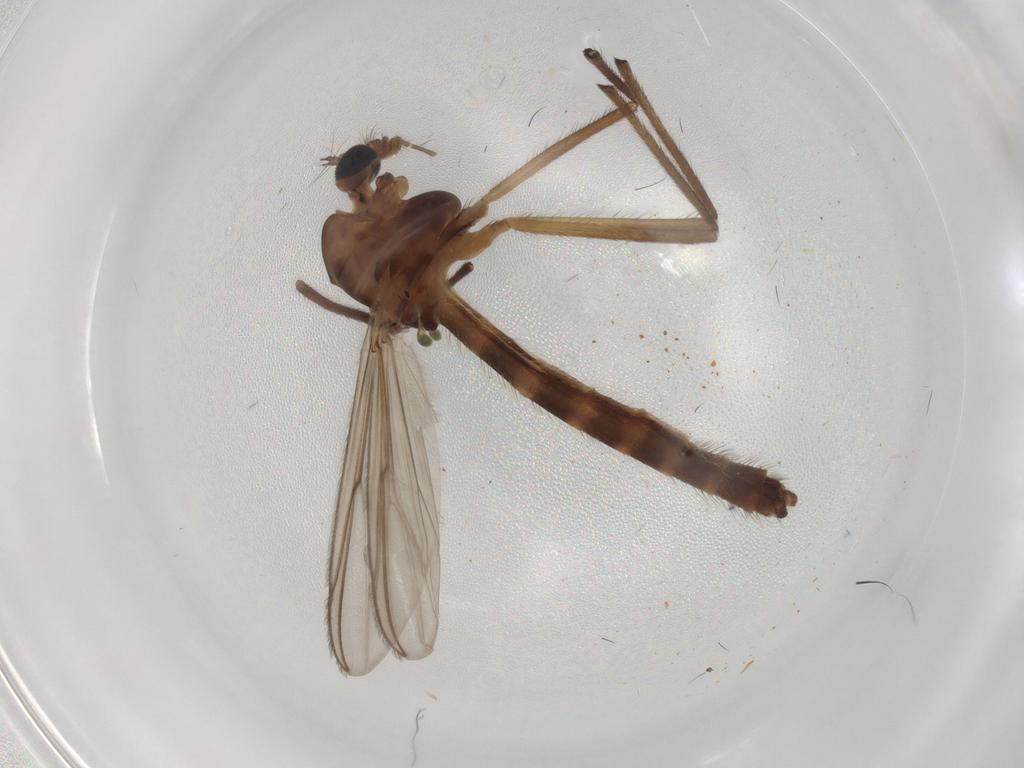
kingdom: Animalia
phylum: Arthropoda
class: Insecta
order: Diptera
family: Chironomidae
